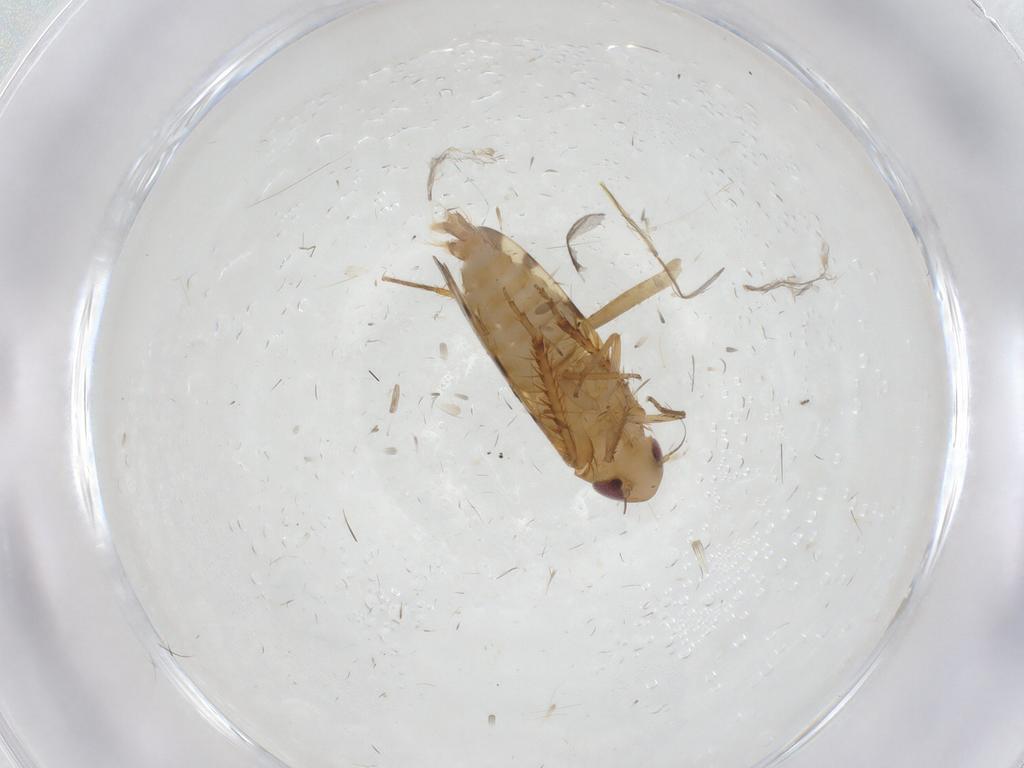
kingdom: Animalia
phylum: Arthropoda
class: Insecta
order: Hemiptera
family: Cicadellidae
